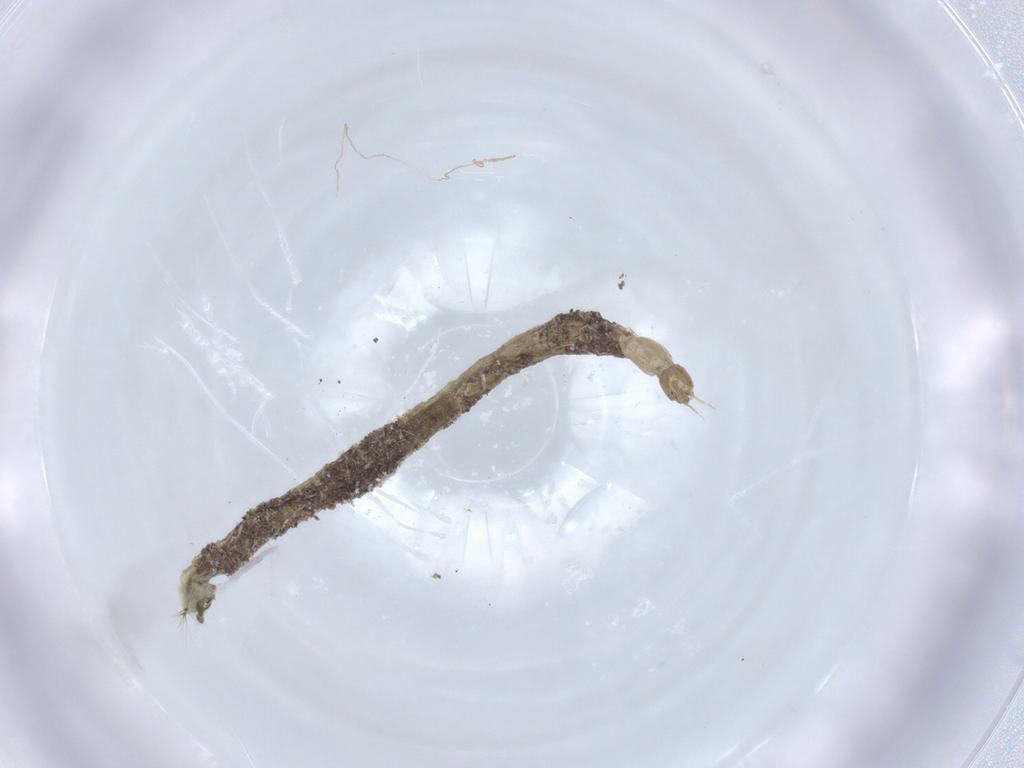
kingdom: Animalia
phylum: Arthropoda
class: Insecta
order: Diptera
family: Chironomidae
